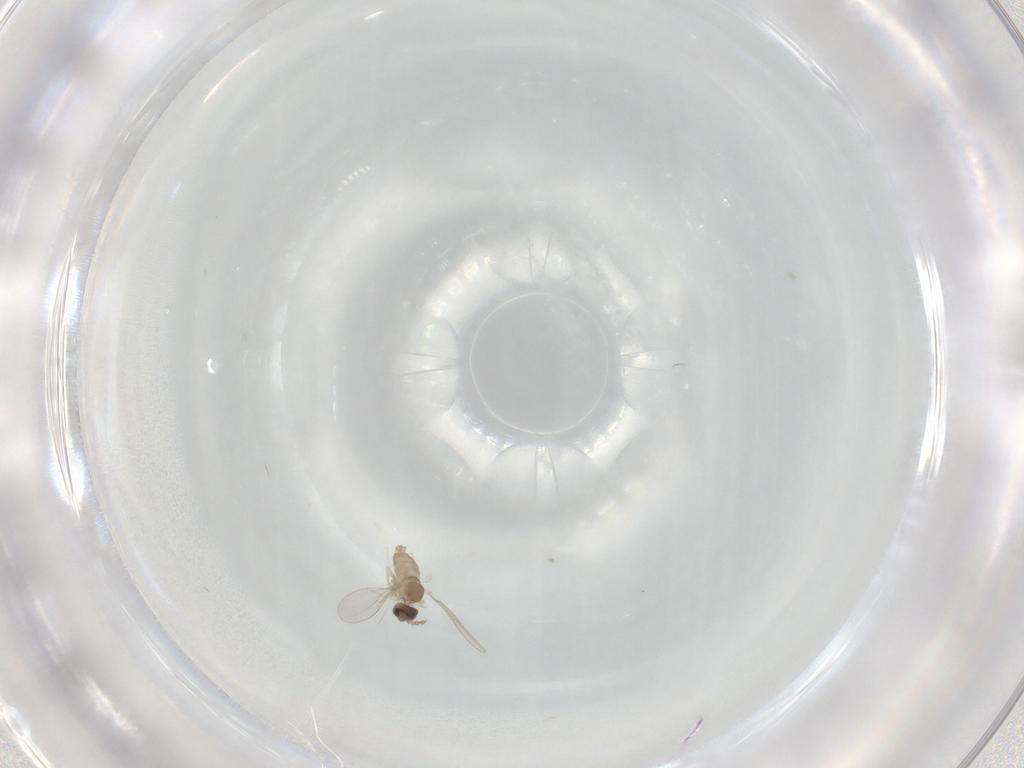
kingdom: Animalia
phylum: Arthropoda
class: Insecta
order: Diptera
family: Cecidomyiidae
